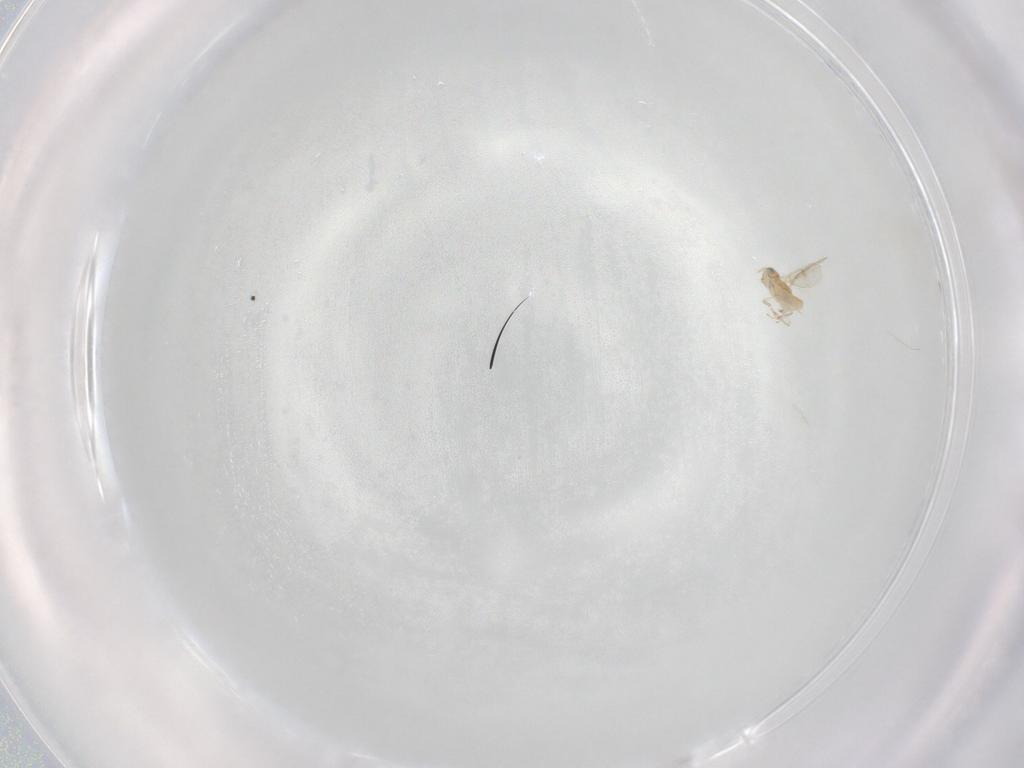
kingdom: Animalia
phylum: Arthropoda
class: Insecta
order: Hymenoptera
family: Aphelinidae
